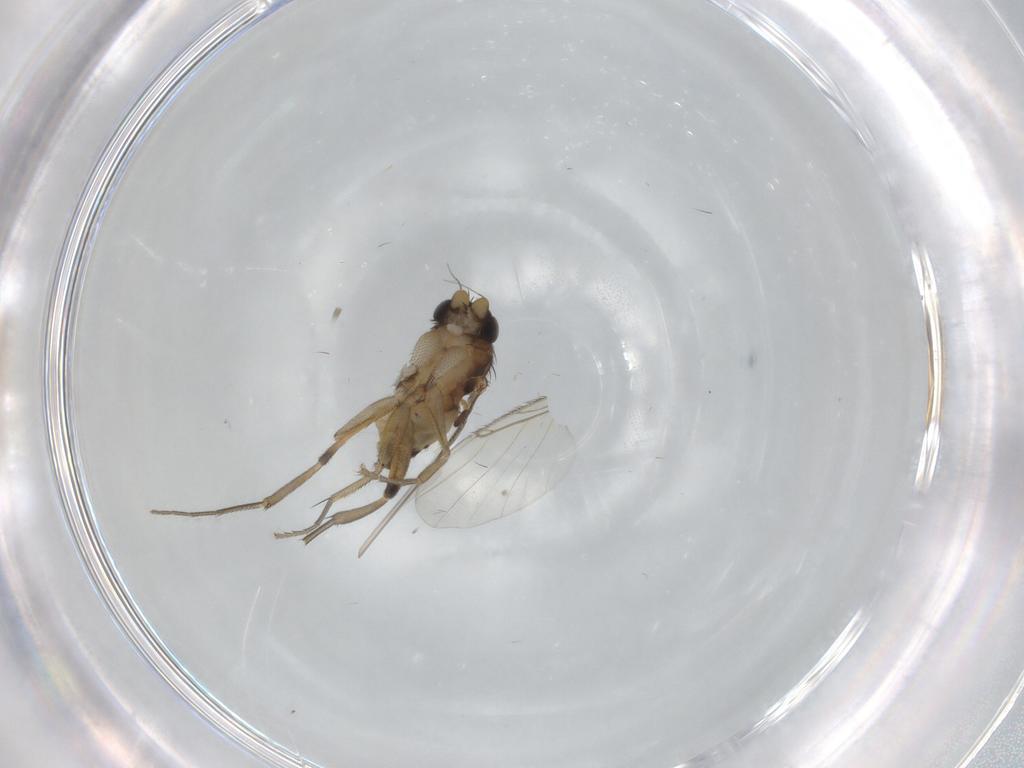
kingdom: Animalia
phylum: Arthropoda
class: Insecta
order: Diptera
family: Phoridae
